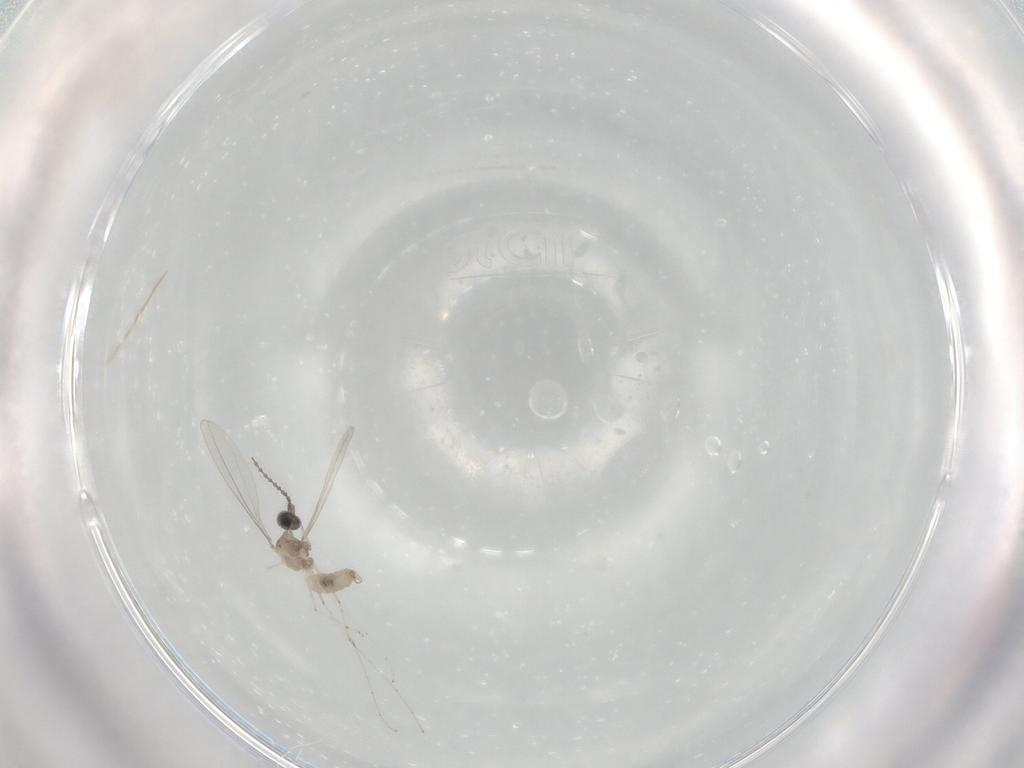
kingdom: Animalia
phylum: Arthropoda
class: Insecta
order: Diptera
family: Cecidomyiidae
